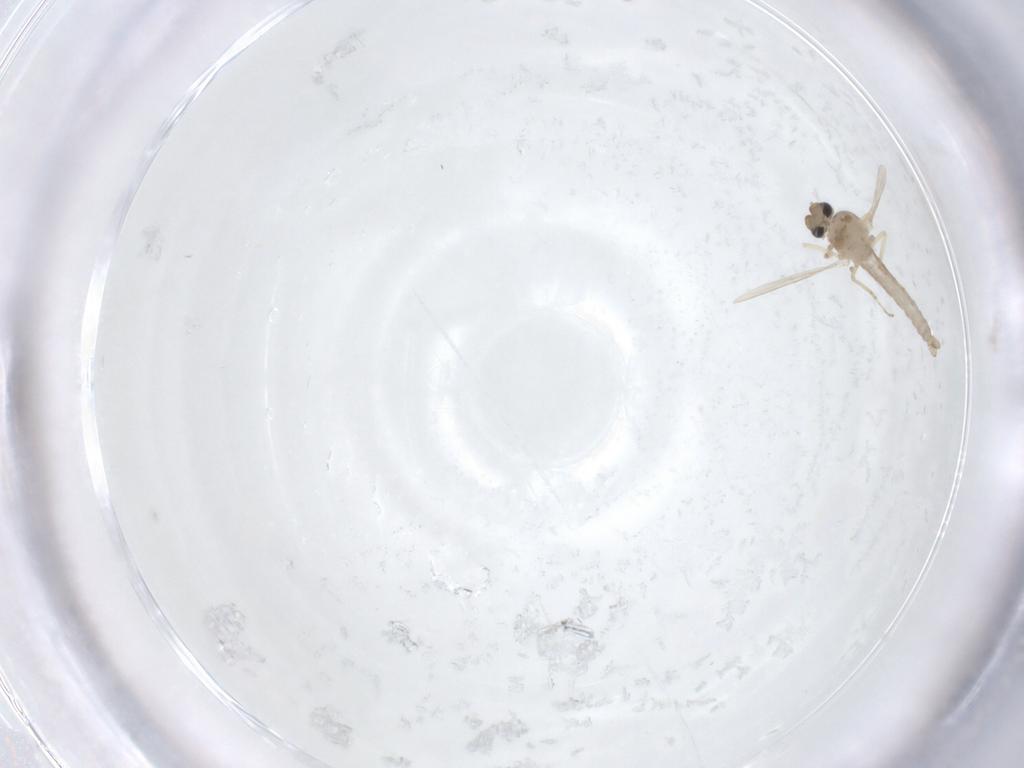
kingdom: Animalia
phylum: Arthropoda
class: Insecta
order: Diptera
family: Ceratopogonidae
